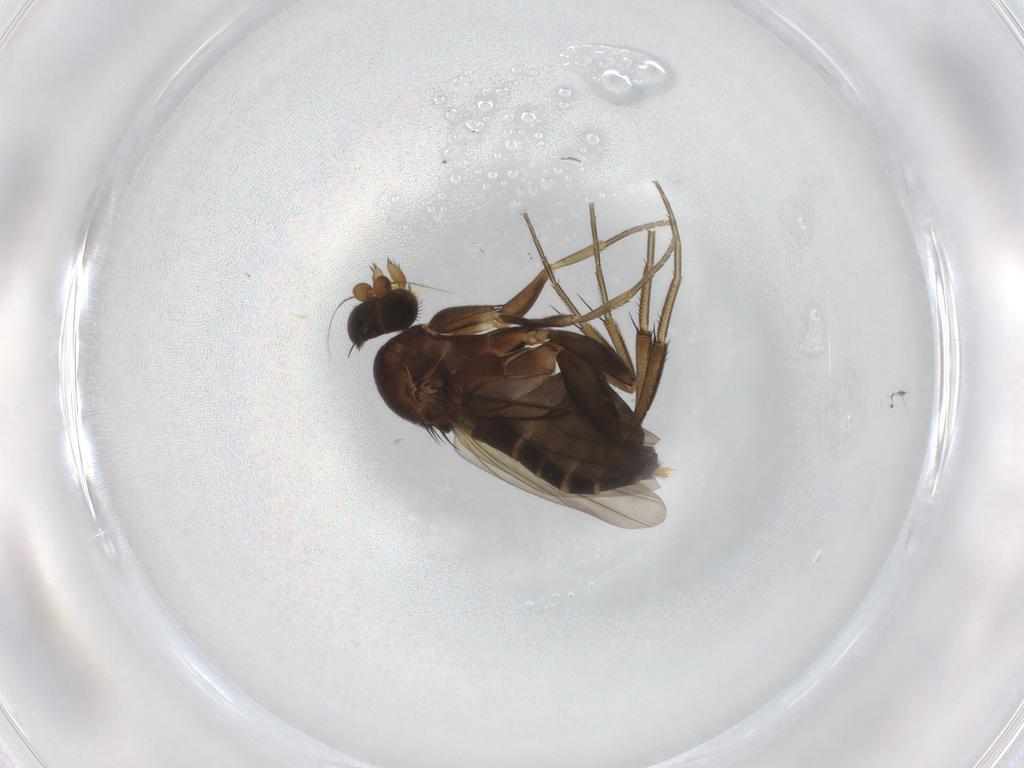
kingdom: Animalia
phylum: Arthropoda
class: Insecta
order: Diptera
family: Phoridae
